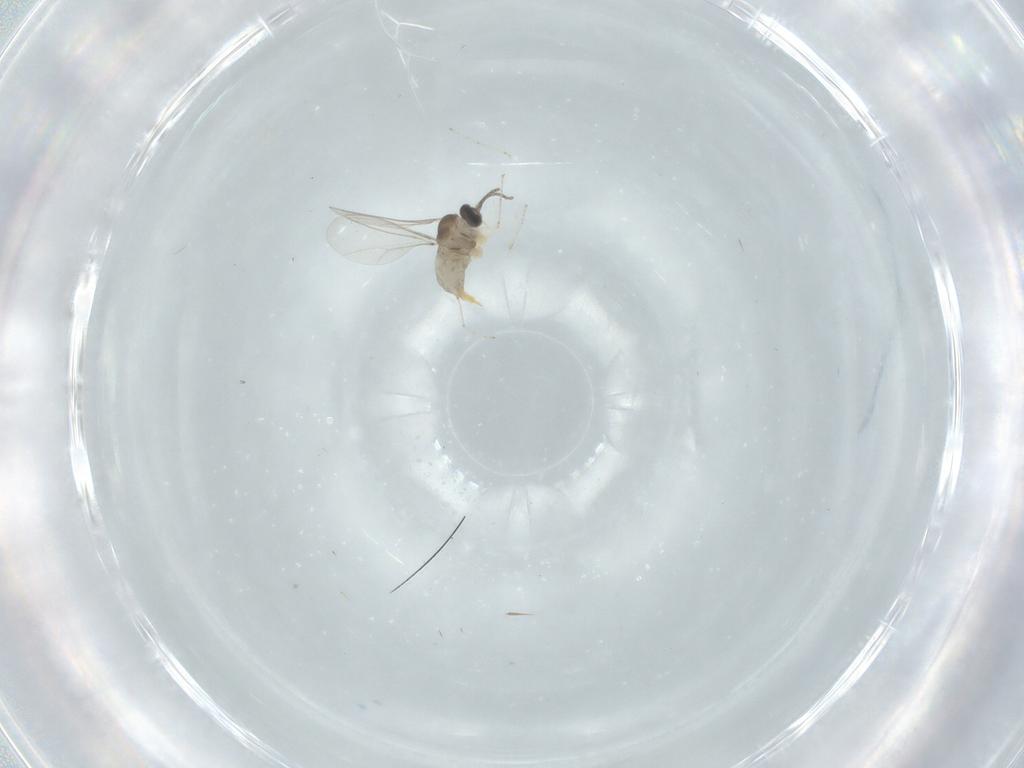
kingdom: Animalia
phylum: Arthropoda
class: Insecta
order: Diptera
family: Cecidomyiidae
